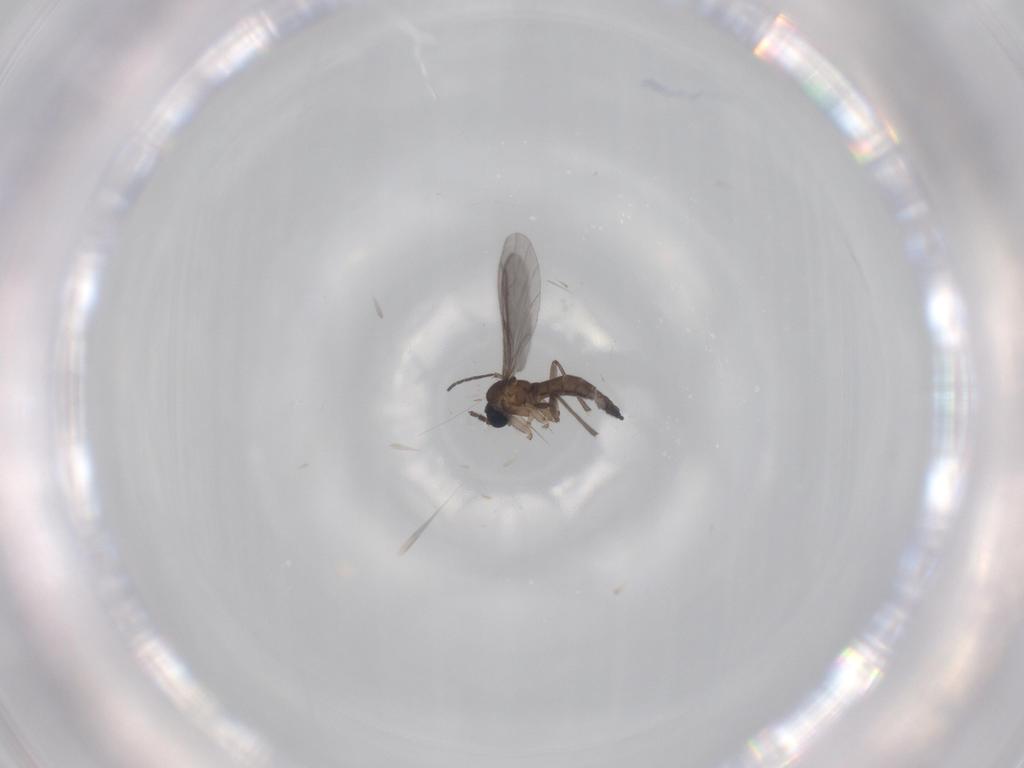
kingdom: Animalia
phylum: Arthropoda
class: Insecta
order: Diptera
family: Sciaridae
